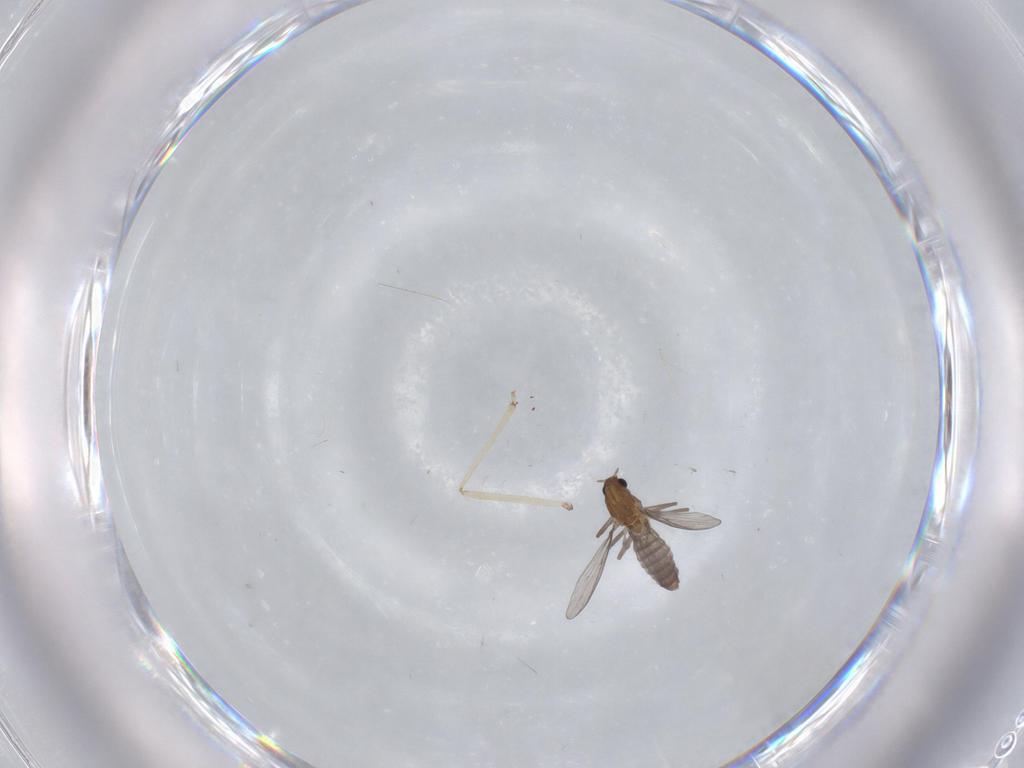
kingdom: Animalia
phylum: Arthropoda
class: Insecta
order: Diptera
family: Chironomidae
